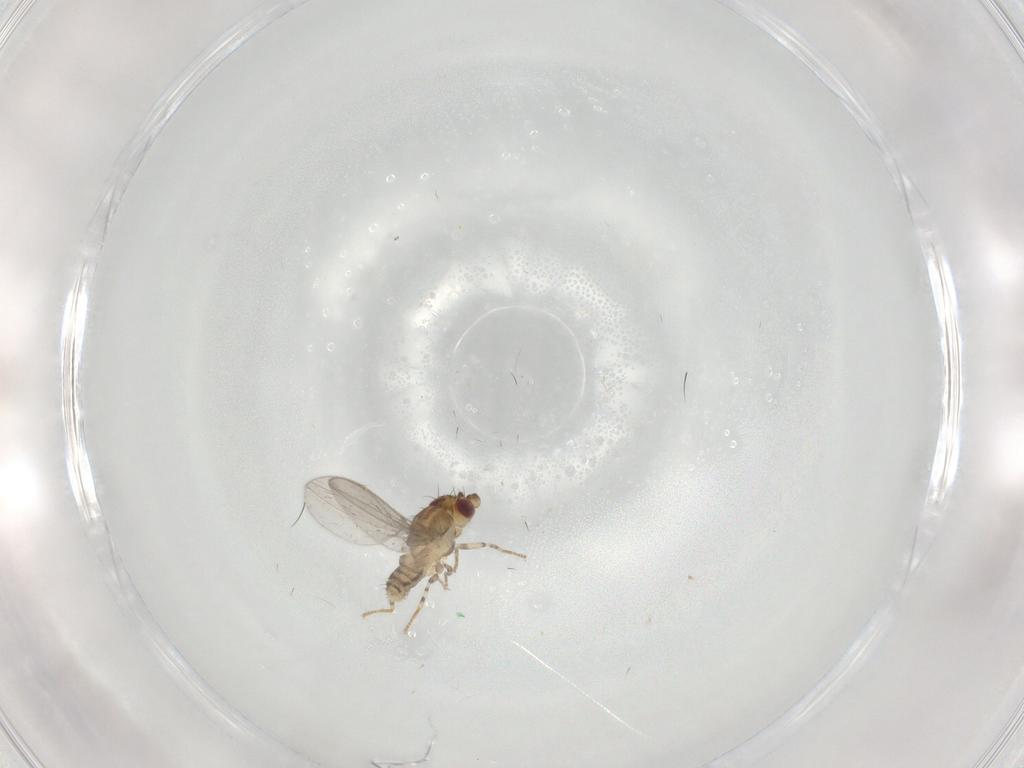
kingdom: Animalia
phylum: Arthropoda
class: Insecta
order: Diptera
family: Asteiidae
